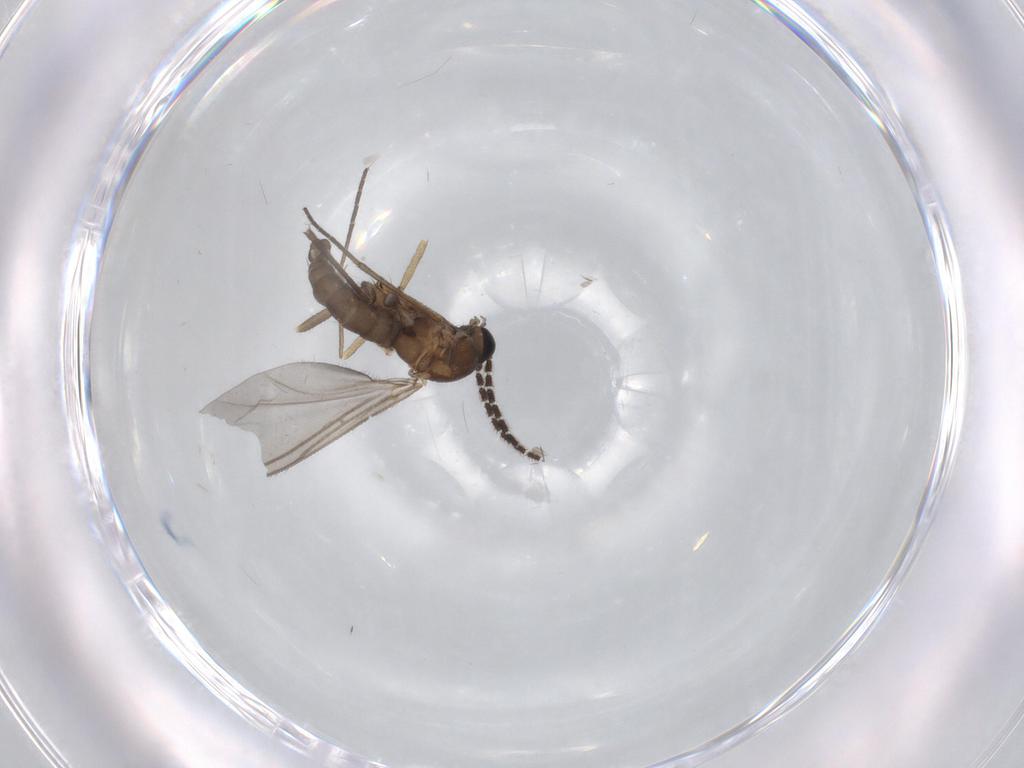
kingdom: Animalia
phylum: Arthropoda
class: Insecta
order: Diptera
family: Sciaridae
